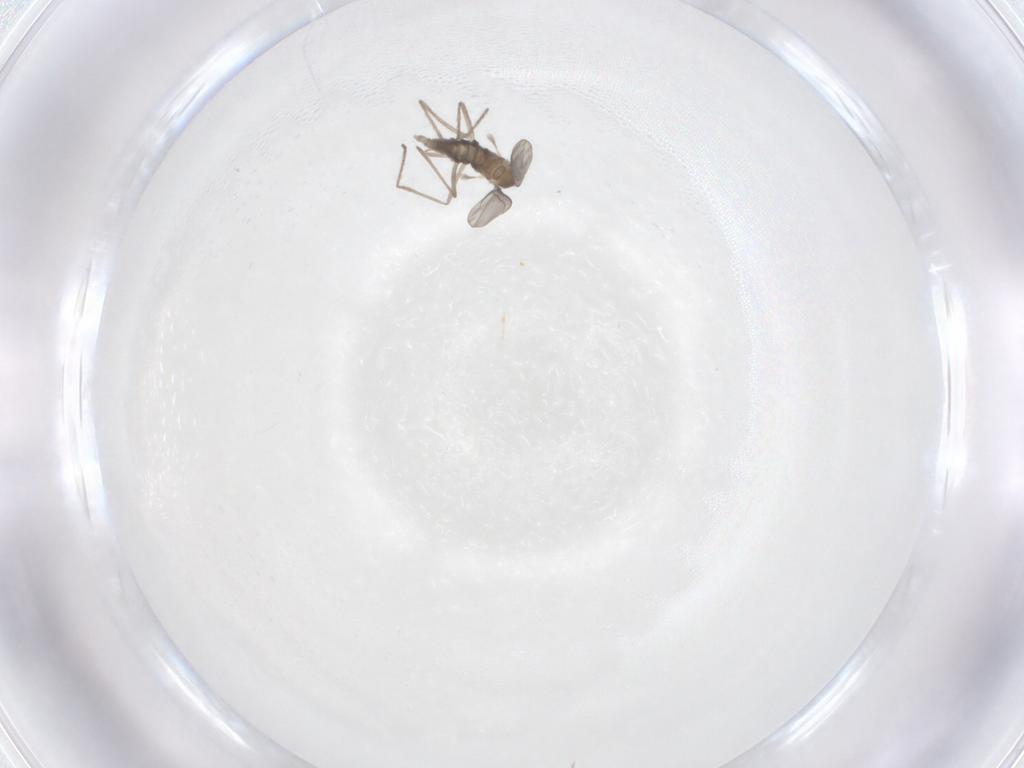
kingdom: Animalia
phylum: Arthropoda
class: Insecta
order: Diptera
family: Cecidomyiidae
